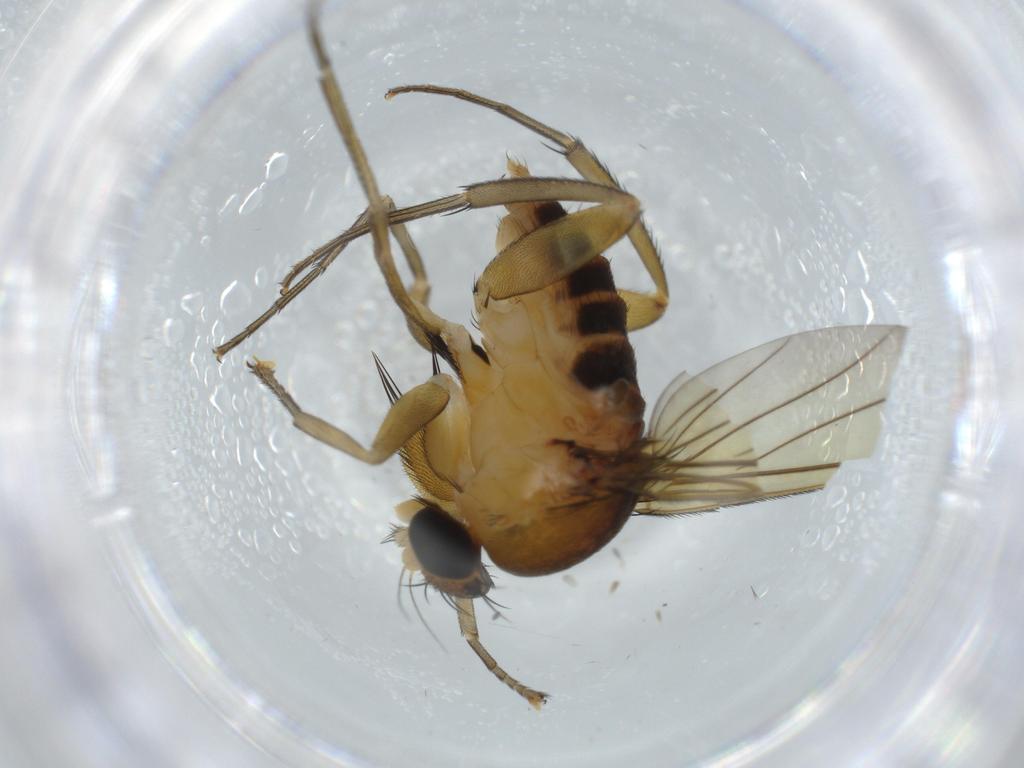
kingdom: Animalia
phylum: Arthropoda
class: Insecta
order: Diptera
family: Phoridae
